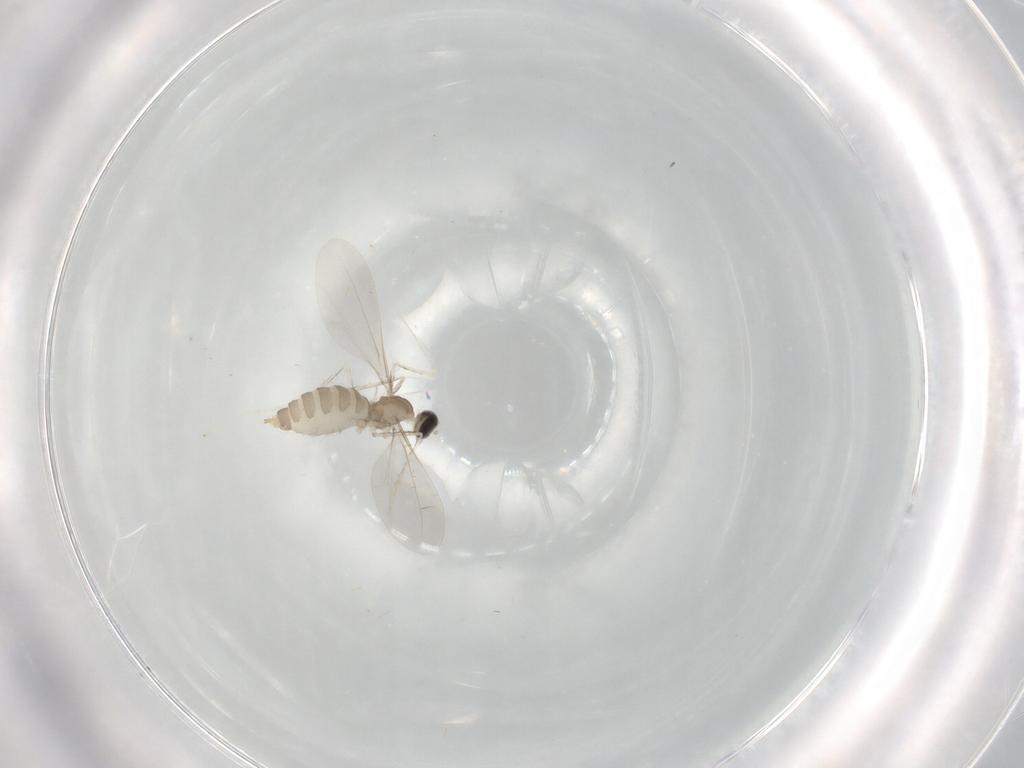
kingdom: Animalia
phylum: Arthropoda
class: Insecta
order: Diptera
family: Cecidomyiidae
